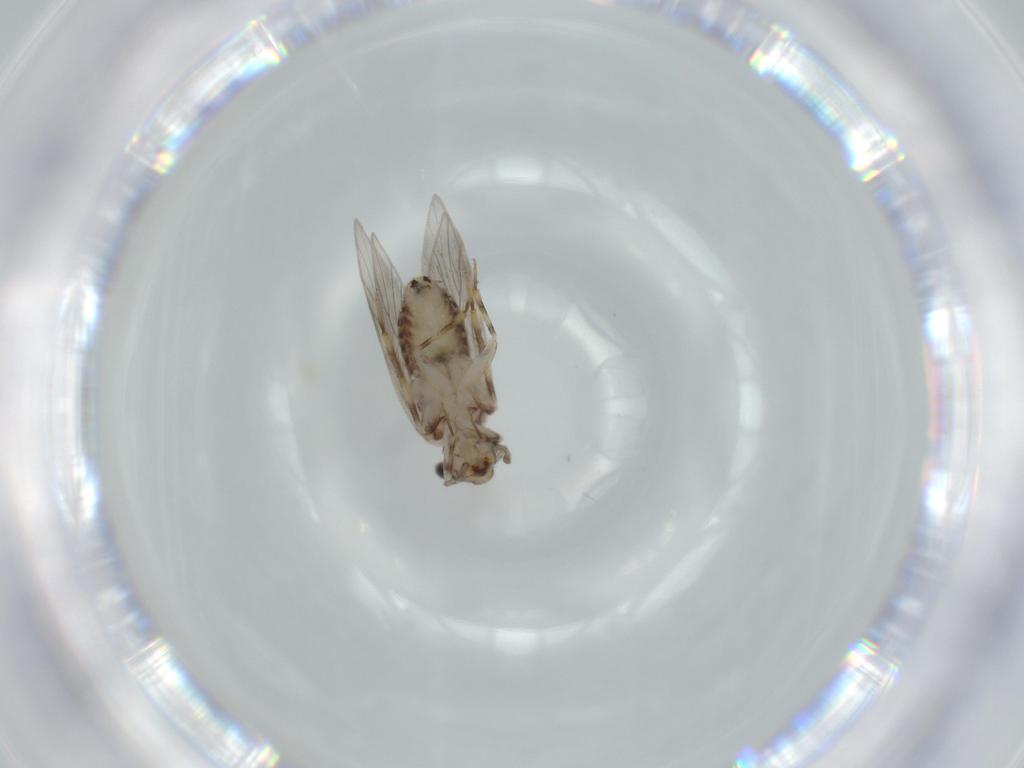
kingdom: Animalia
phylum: Arthropoda
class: Insecta
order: Psocodea
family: Lepidopsocidae
